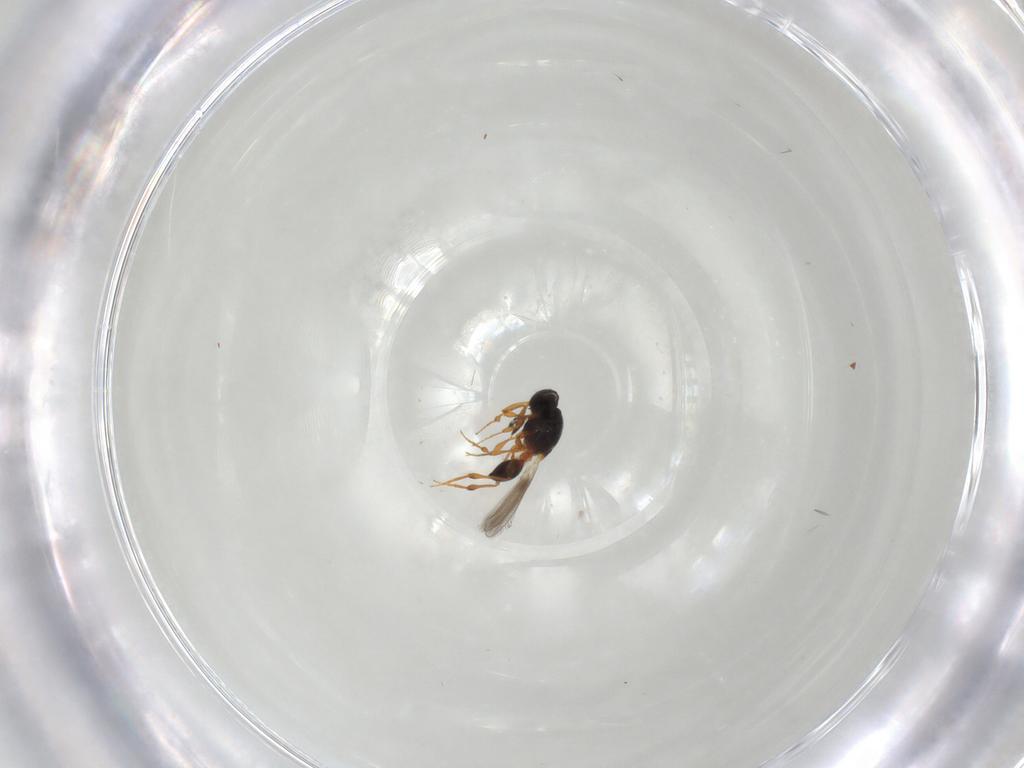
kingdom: Animalia
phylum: Arthropoda
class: Insecta
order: Hymenoptera
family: Platygastridae
